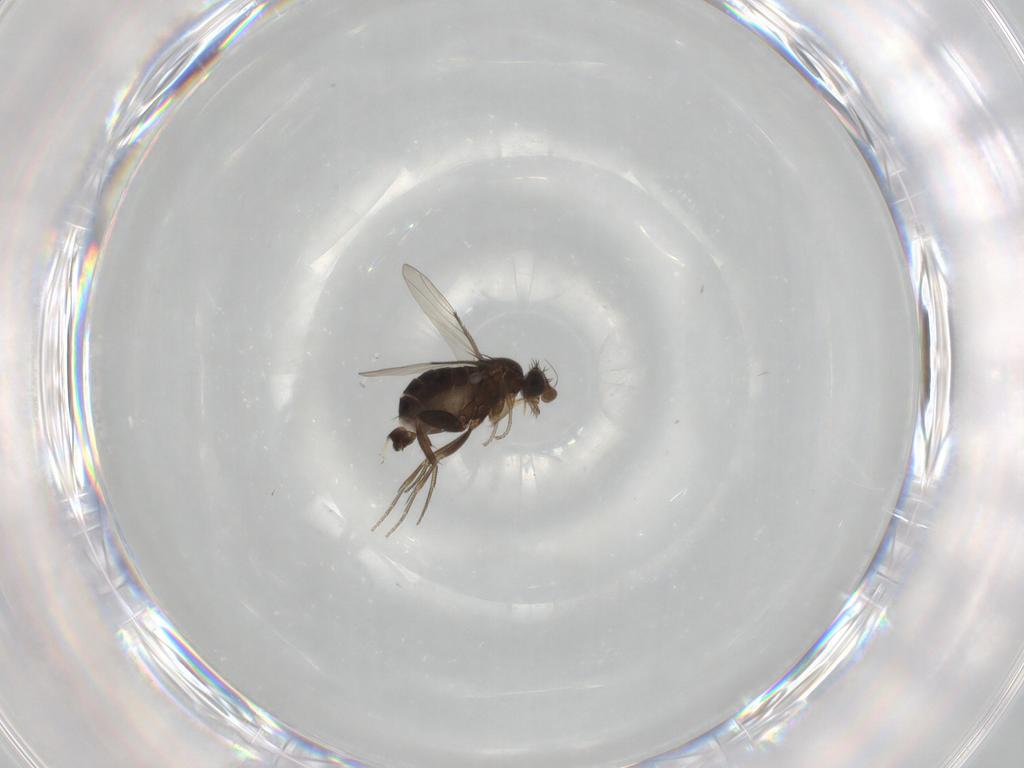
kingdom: Animalia
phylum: Arthropoda
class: Insecta
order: Diptera
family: Phoridae
